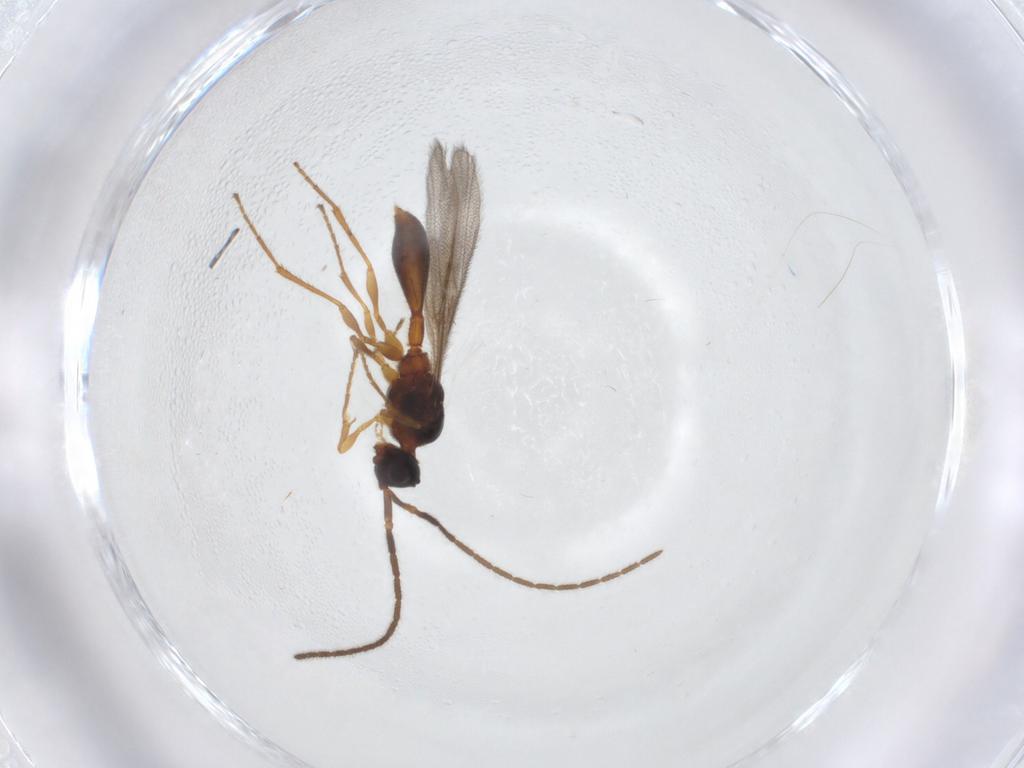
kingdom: Animalia
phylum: Arthropoda
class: Insecta
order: Hymenoptera
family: Diapriidae
